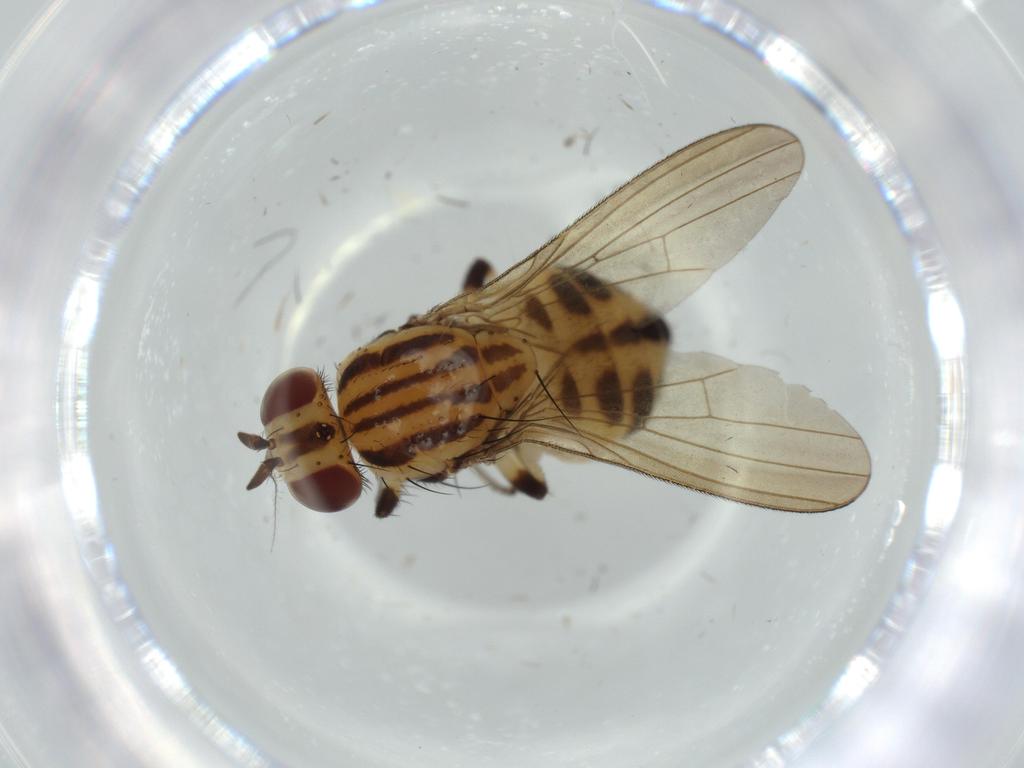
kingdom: Animalia
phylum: Arthropoda
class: Insecta
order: Diptera
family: Lauxaniidae
